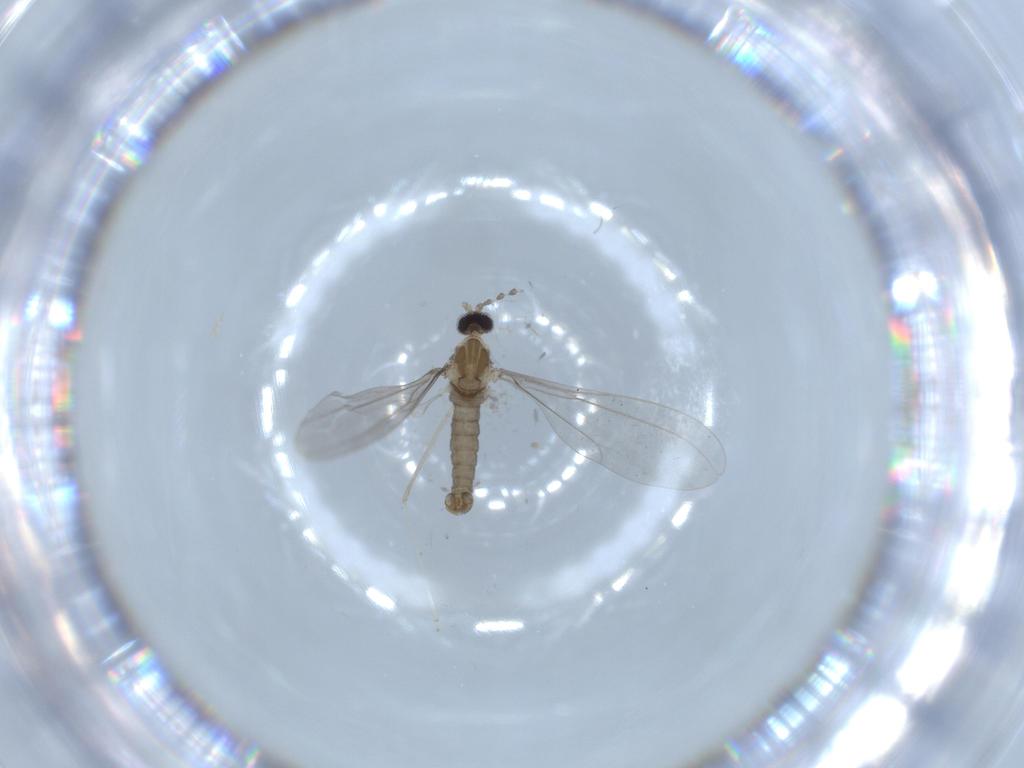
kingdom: Animalia
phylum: Arthropoda
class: Insecta
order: Diptera
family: Cecidomyiidae
